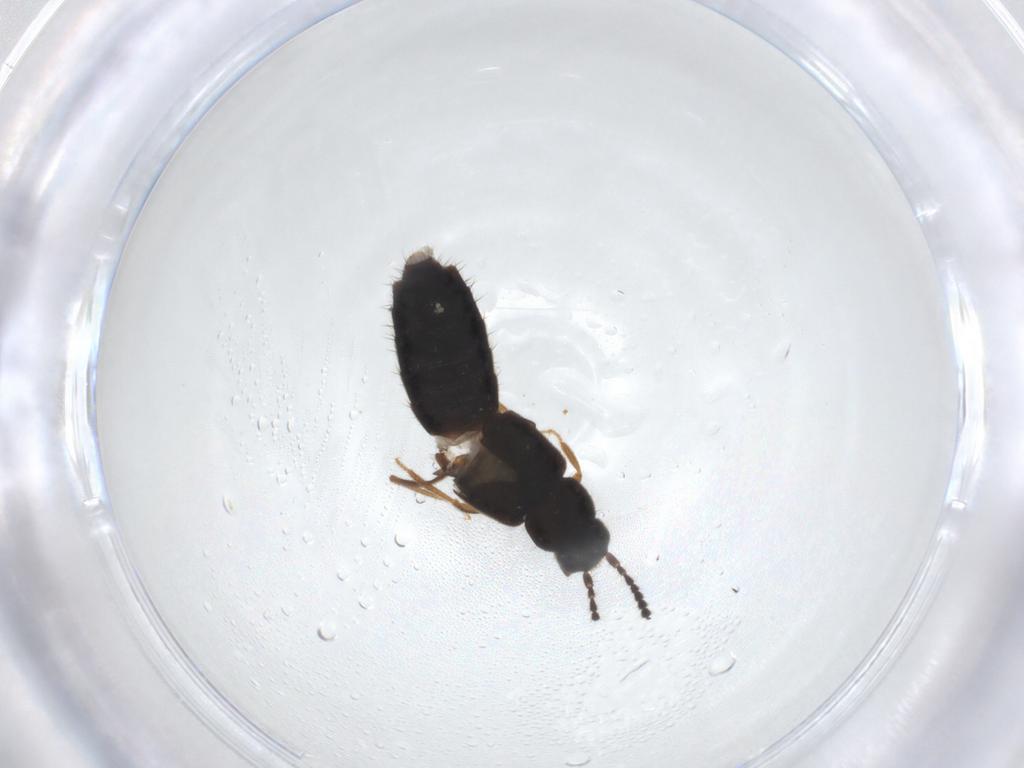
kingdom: Animalia
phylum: Arthropoda
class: Insecta
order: Coleoptera
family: Staphylinidae
